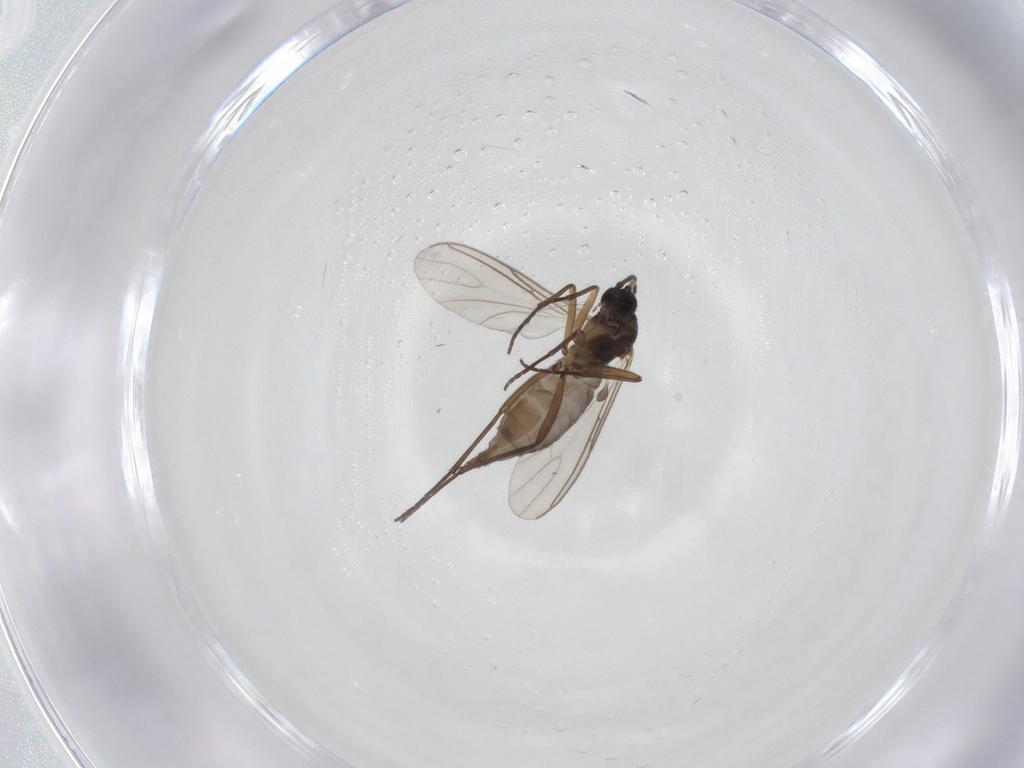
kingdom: Animalia
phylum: Arthropoda
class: Insecta
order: Diptera
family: Sciaridae
